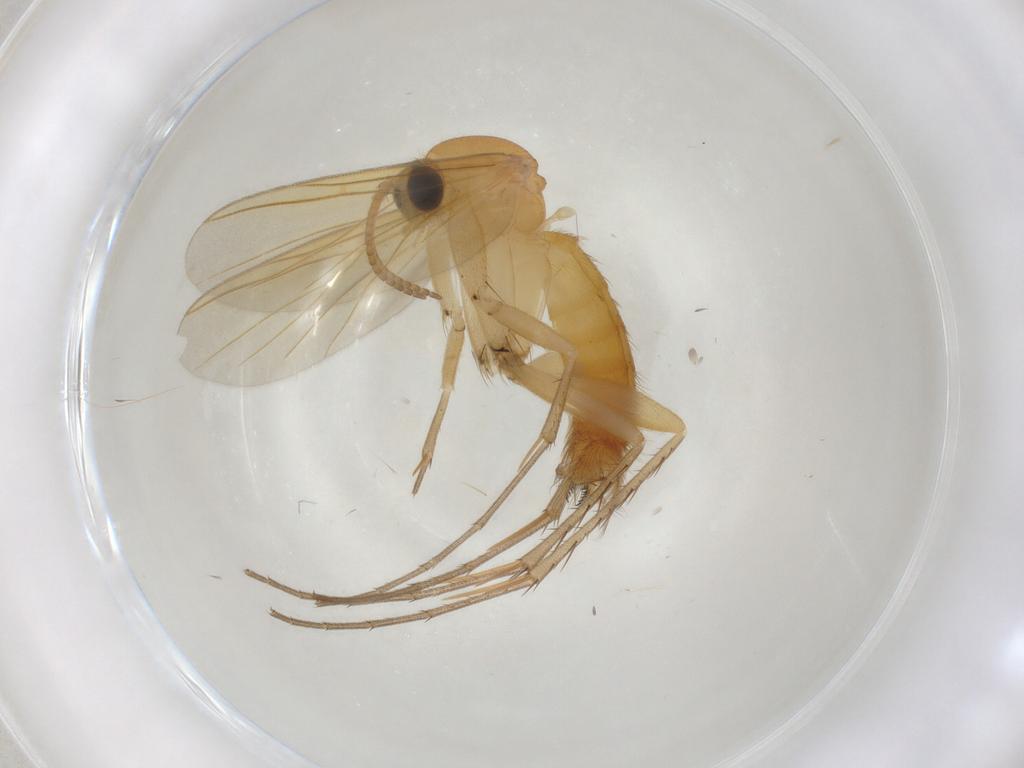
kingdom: Animalia
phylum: Arthropoda
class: Insecta
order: Diptera
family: Mycetophilidae
